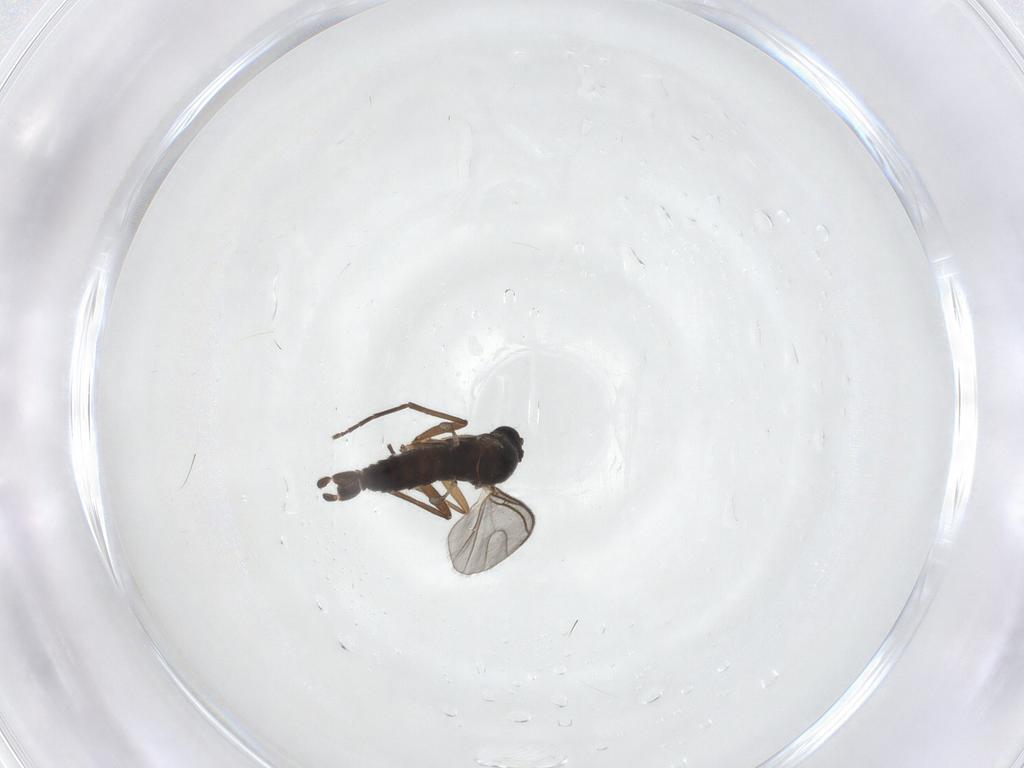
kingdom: Animalia
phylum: Arthropoda
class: Insecta
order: Diptera
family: Sciaridae
